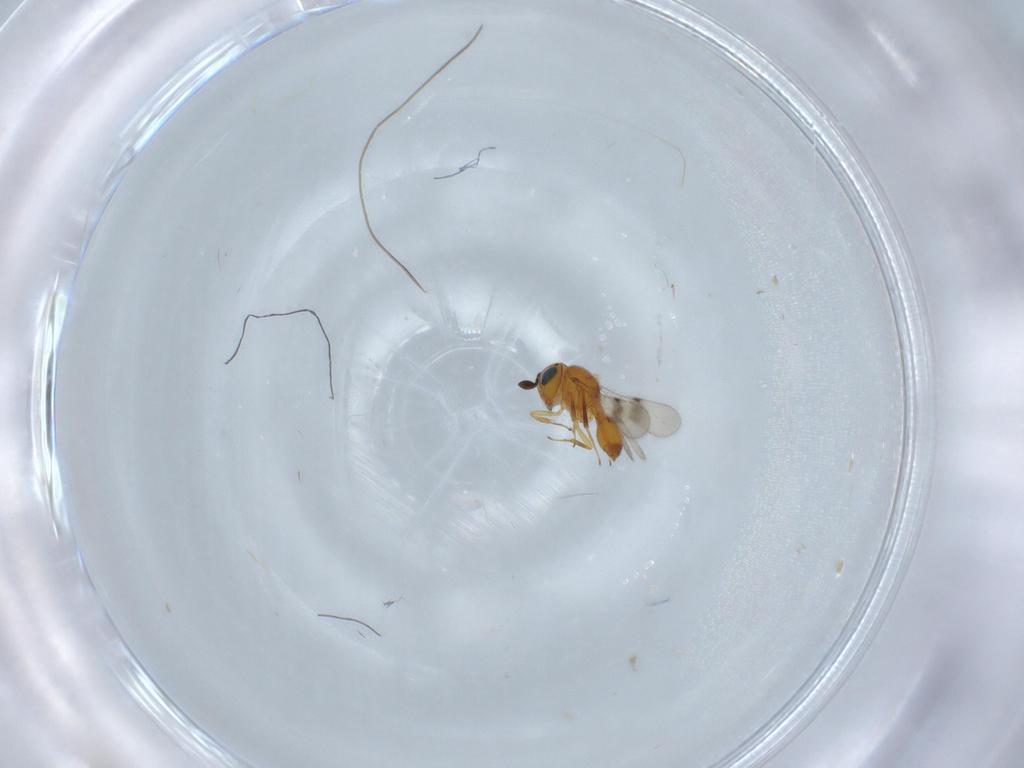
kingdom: Animalia
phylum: Arthropoda
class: Insecta
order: Hymenoptera
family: Scelionidae
